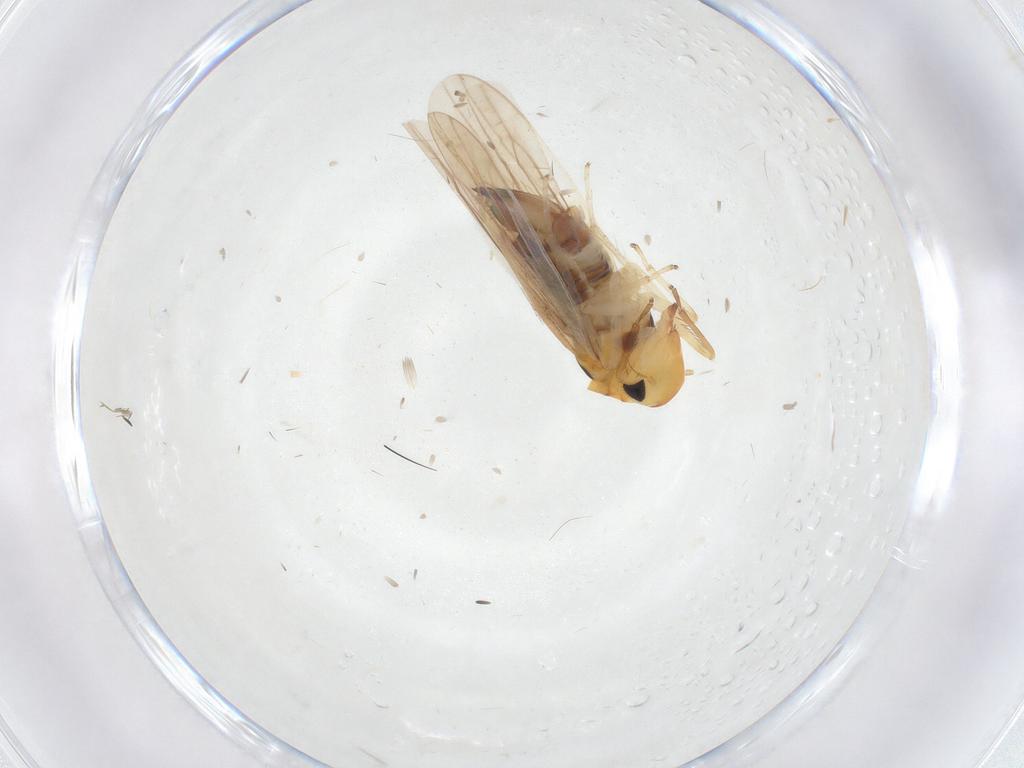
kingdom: Animalia
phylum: Arthropoda
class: Insecta
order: Hemiptera
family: Cicadellidae
